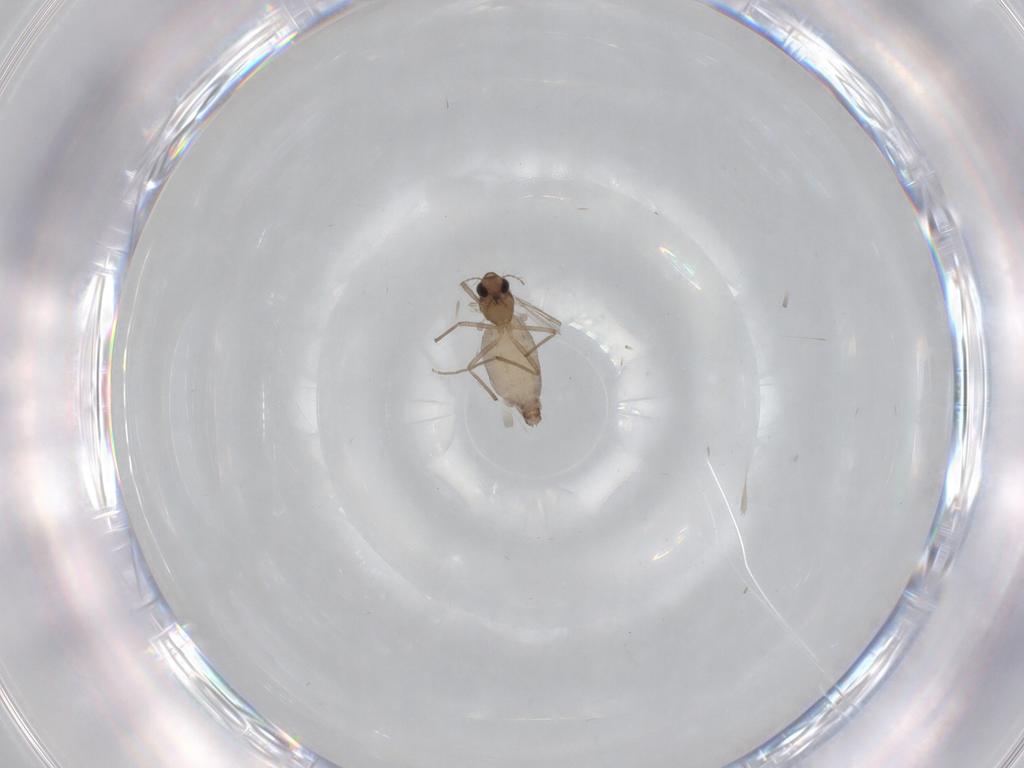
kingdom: Animalia
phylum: Arthropoda
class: Insecta
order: Diptera
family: Chironomidae
